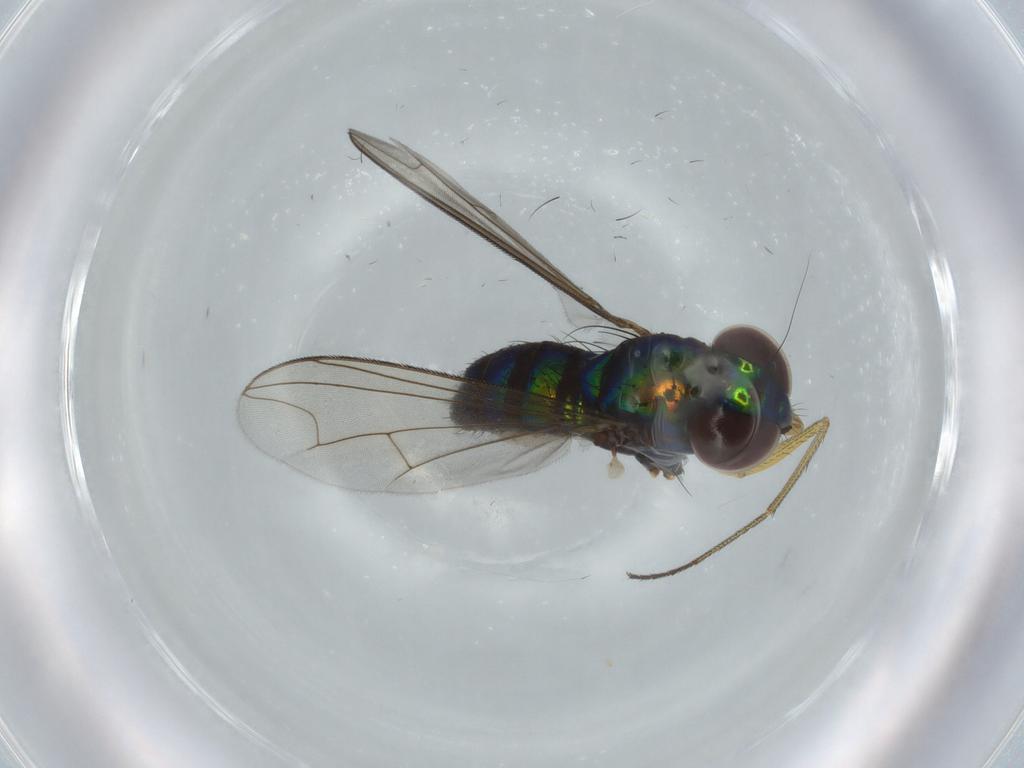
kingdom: Animalia
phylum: Arthropoda
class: Insecta
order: Diptera
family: Dolichopodidae
